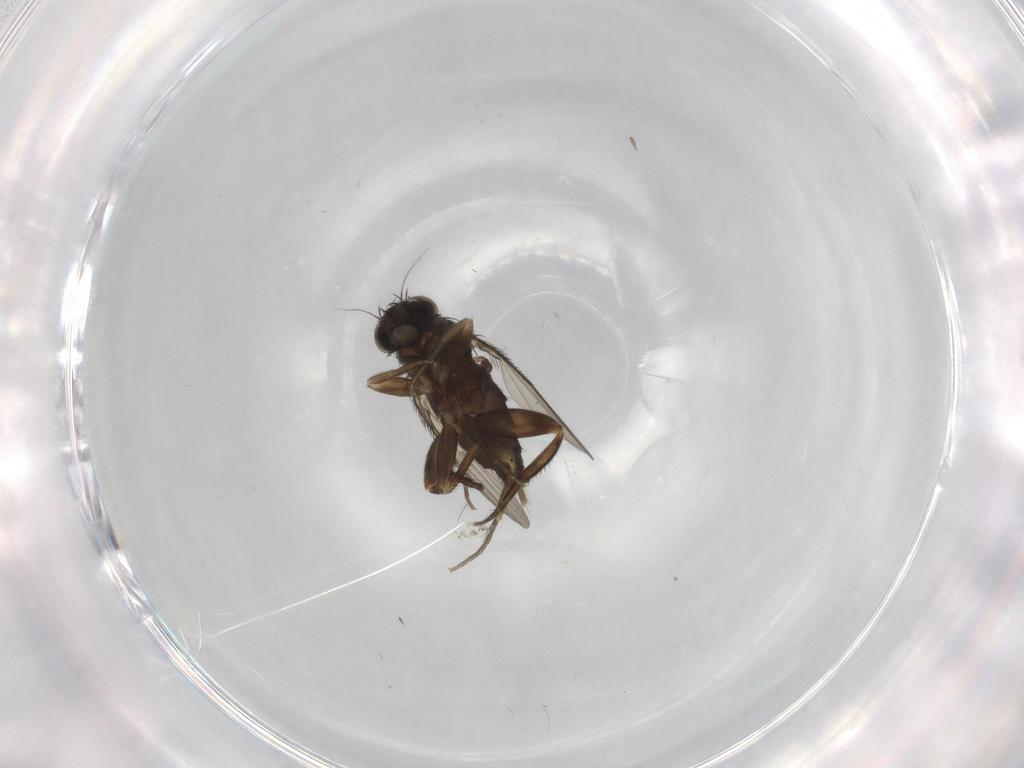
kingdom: Animalia
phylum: Arthropoda
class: Insecta
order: Diptera
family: Phoridae
